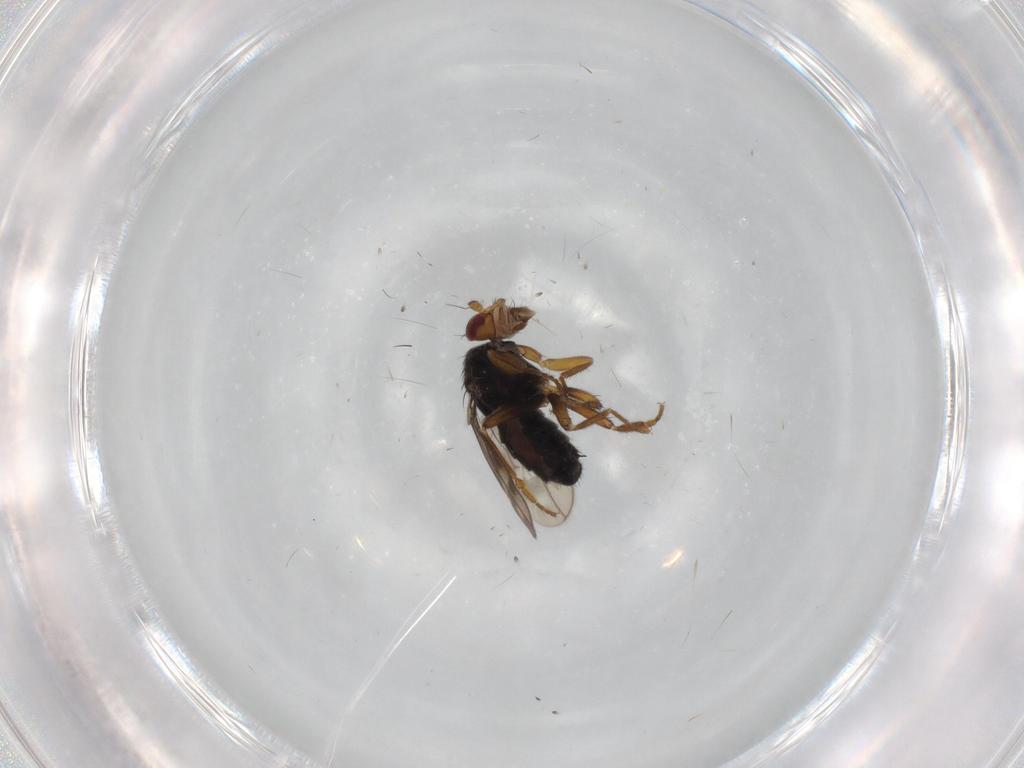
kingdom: Animalia
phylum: Arthropoda
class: Insecta
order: Diptera
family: Sphaeroceridae
